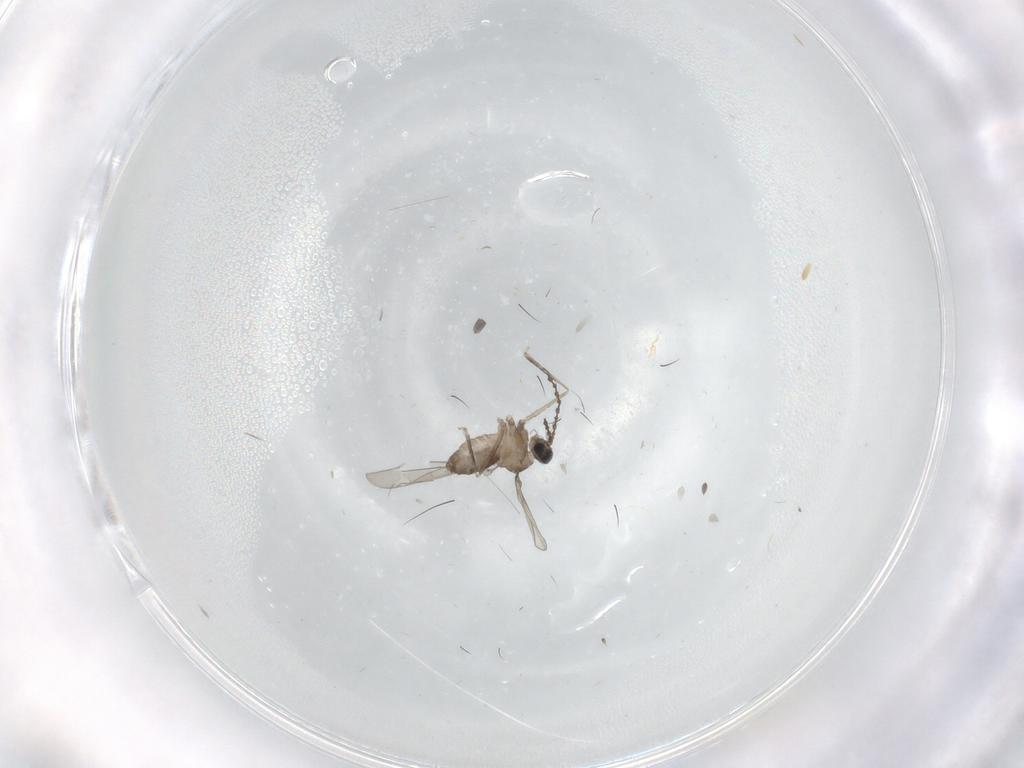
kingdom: Animalia
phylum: Arthropoda
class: Insecta
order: Diptera
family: Cecidomyiidae
